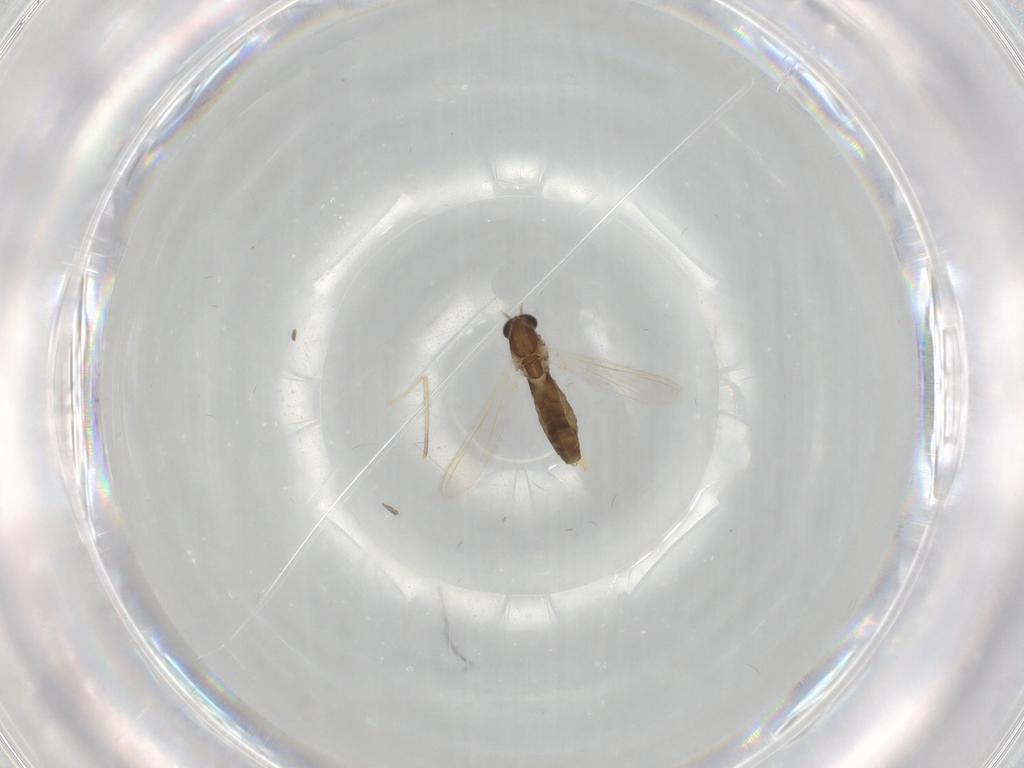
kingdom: Animalia
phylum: Arthropoda
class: Insecta
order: Diptera
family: Chironomidae
